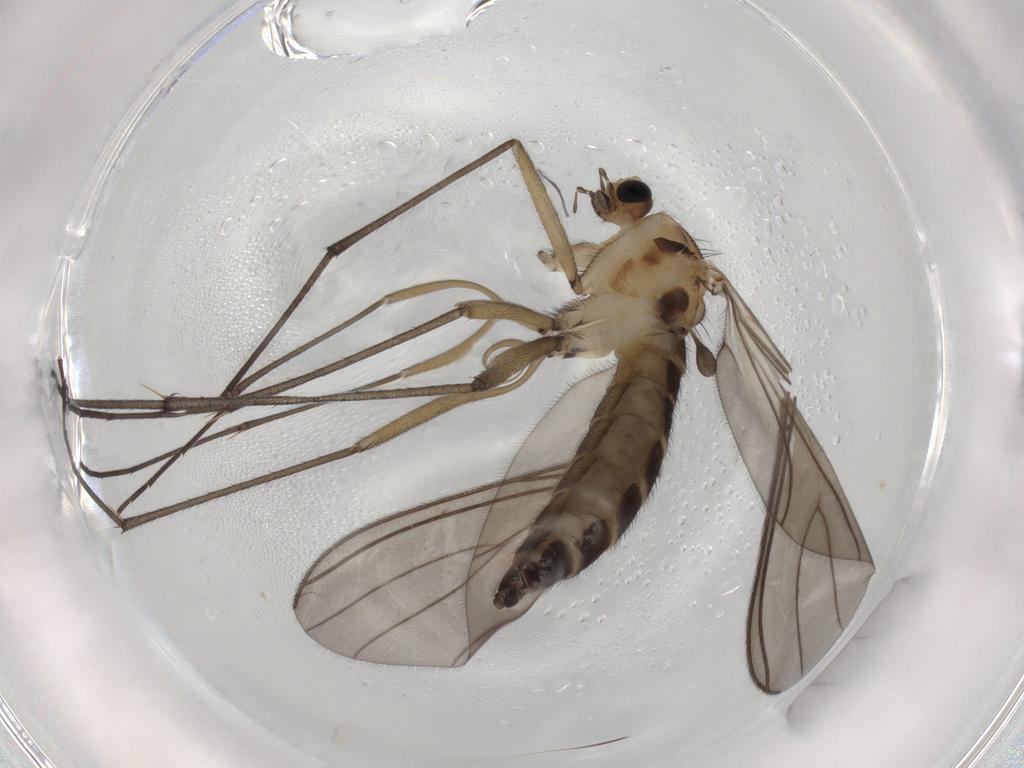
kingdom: Animalia
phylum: Arthropoda
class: Insecta
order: Diptera
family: Sciaridae
